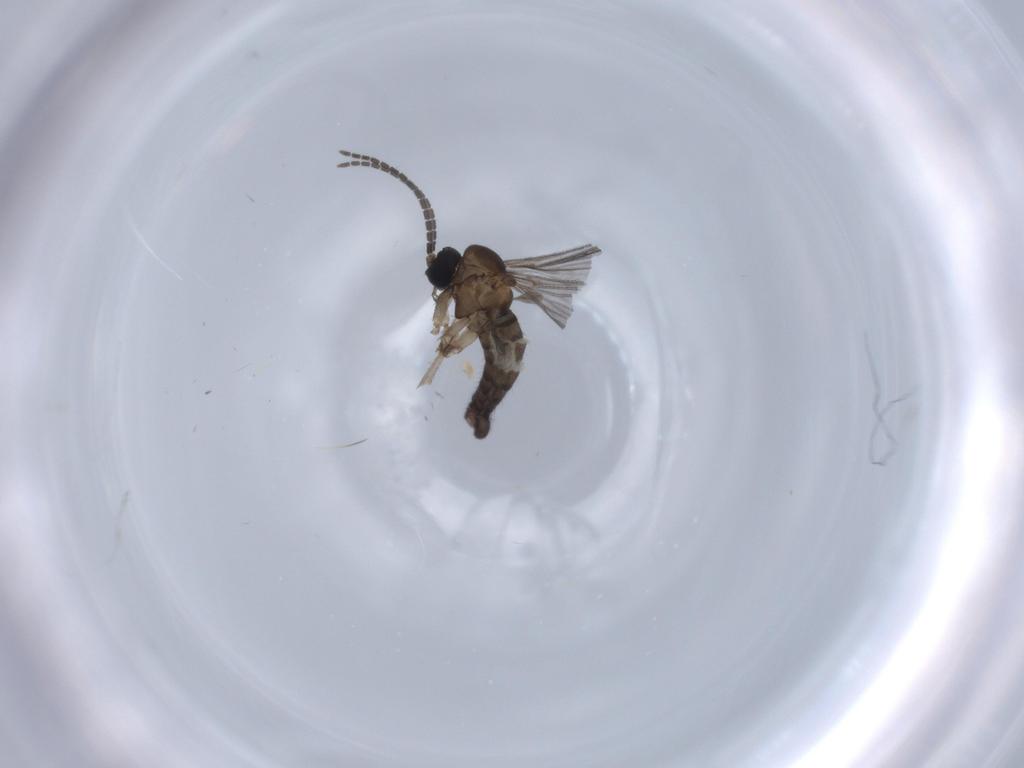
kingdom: Animalia
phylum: Arthropoda
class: Insecta
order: Diptera
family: Sciaridae
